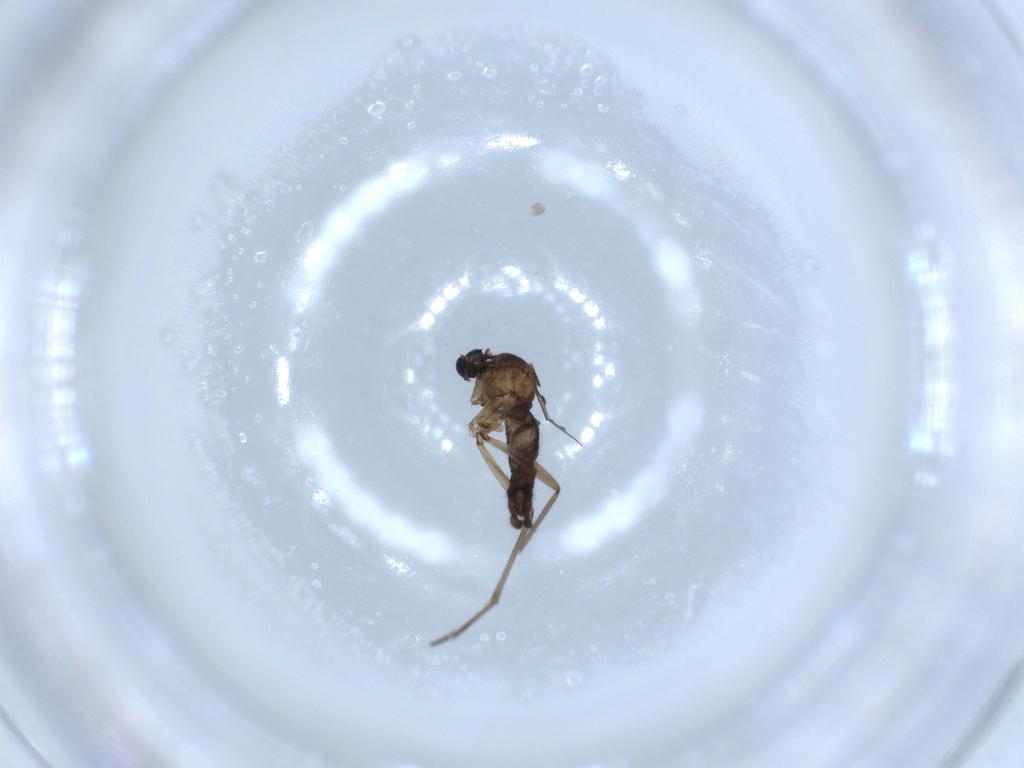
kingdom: Animalia
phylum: Arthropoda
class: Insecta
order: Diptera
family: Sciaridae
